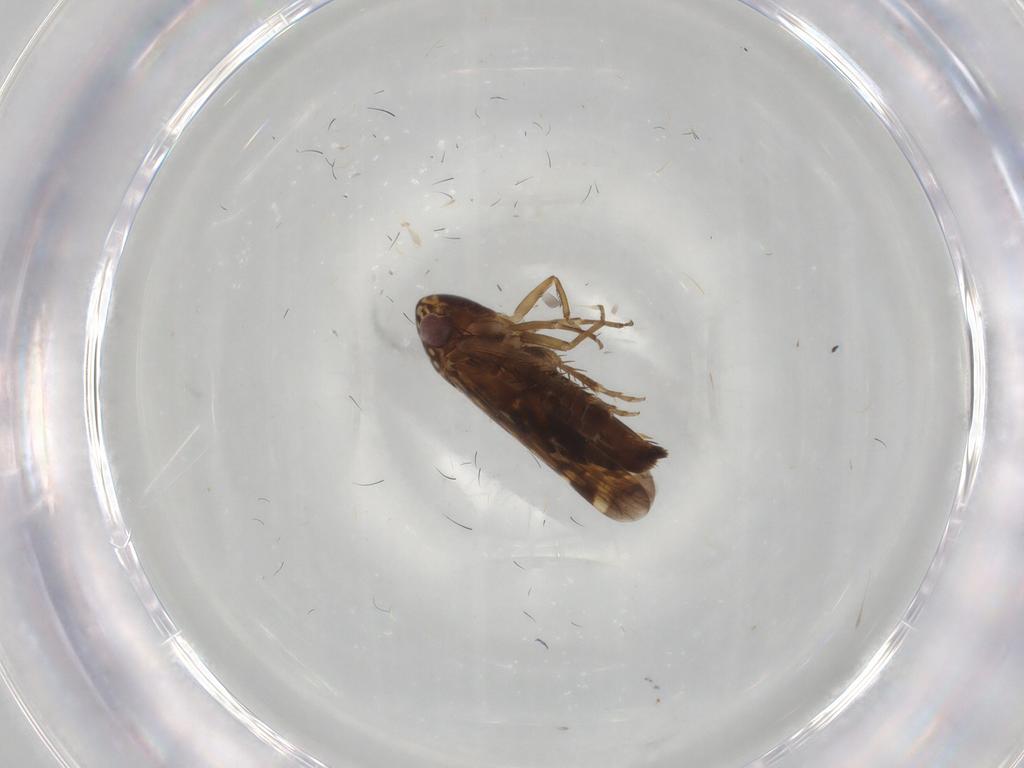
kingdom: Animalia
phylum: Arthropoda
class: Insecta
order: Hemiptera
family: Cicadellidae
